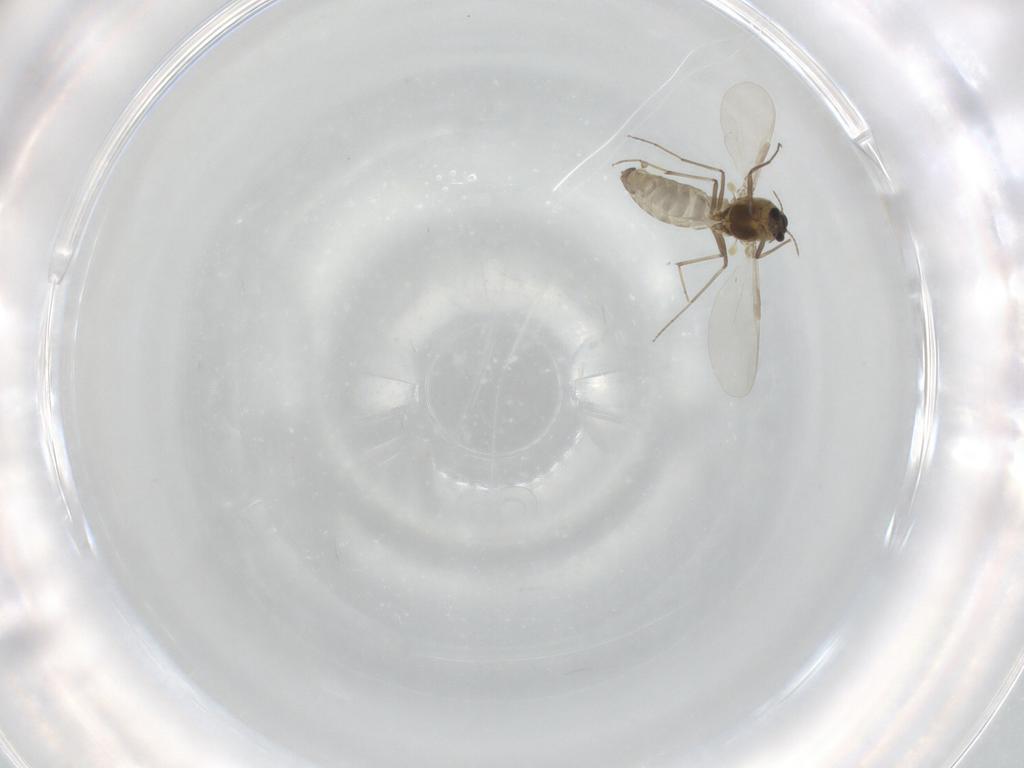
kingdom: Animalia
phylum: Arthropoda
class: Insecta
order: Diptera
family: Chironomidae
